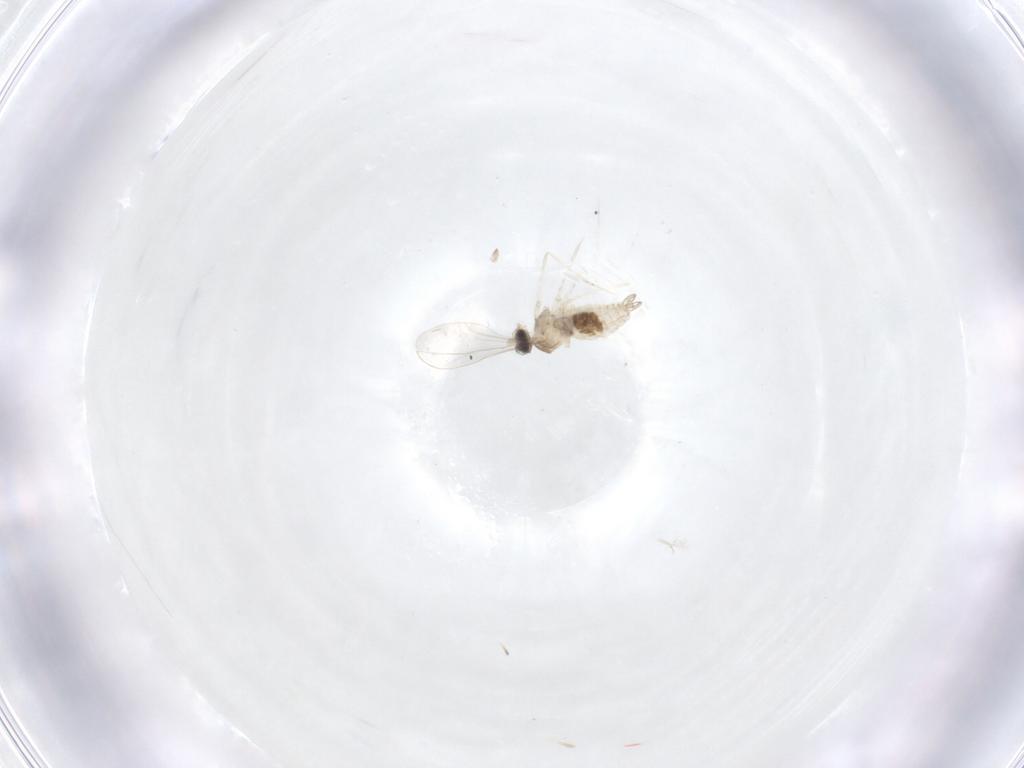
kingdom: Animalia
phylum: Arthropoda
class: Insecta
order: Diptera
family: Cecidomyiidae
